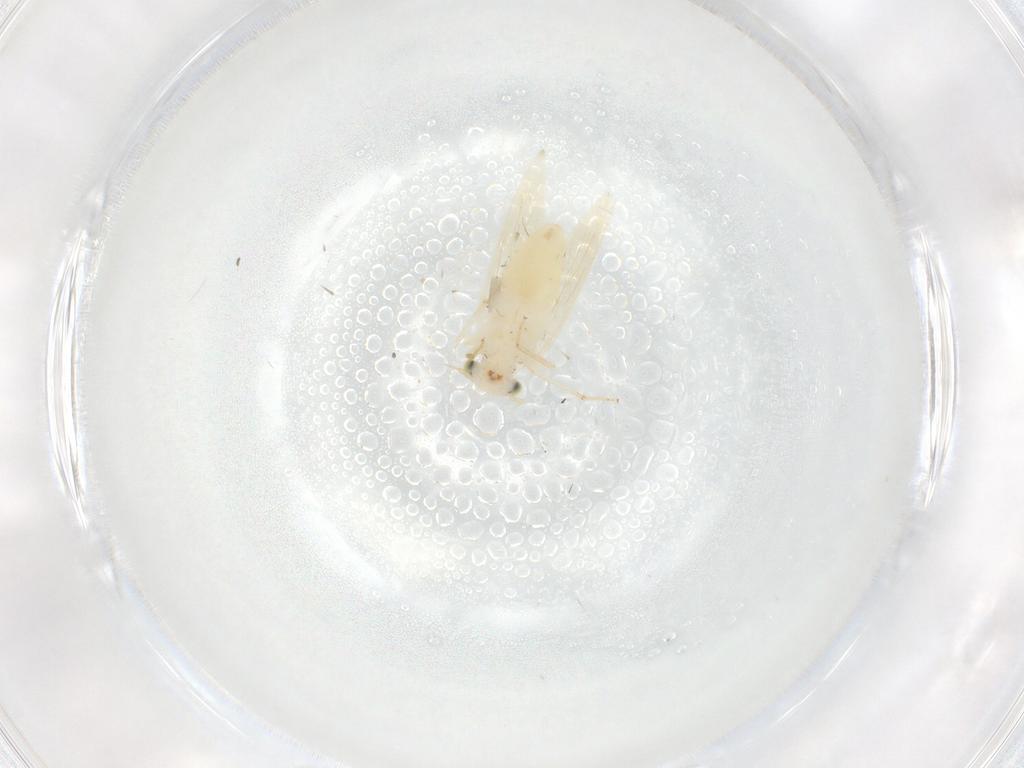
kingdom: Animalia
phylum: Arthropoda
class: Insecta
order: Psocodea
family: Lepidopsocidae
